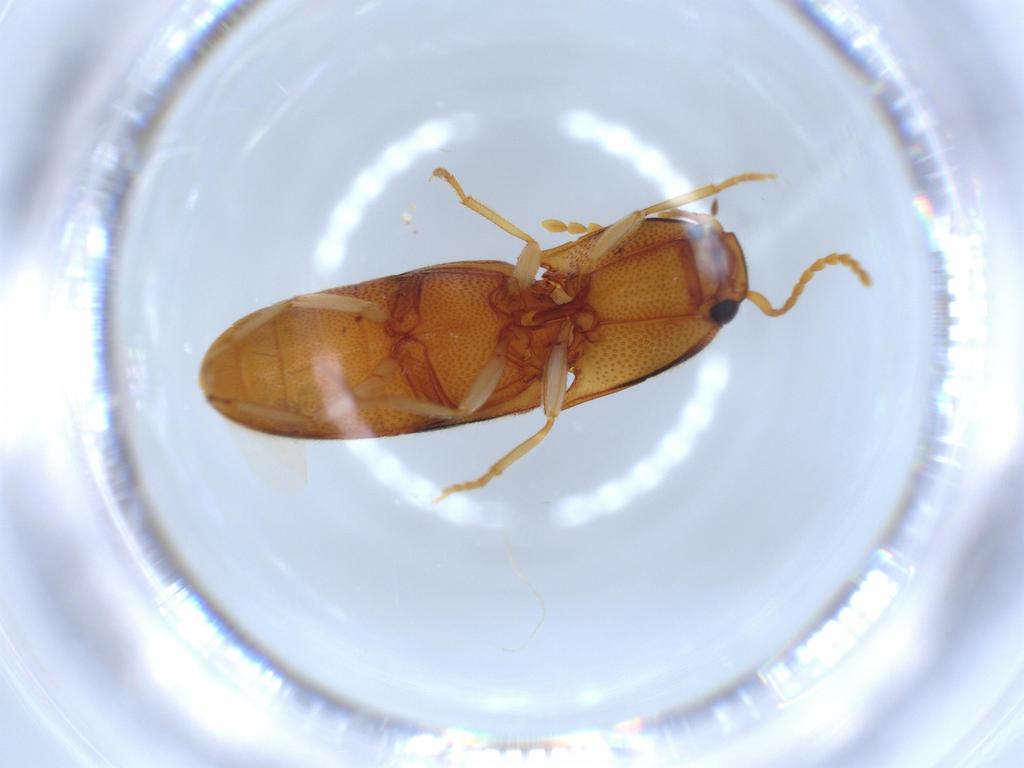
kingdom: Animalia
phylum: Arthropoda
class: Insecta
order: Coleoptera
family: Elateridae
